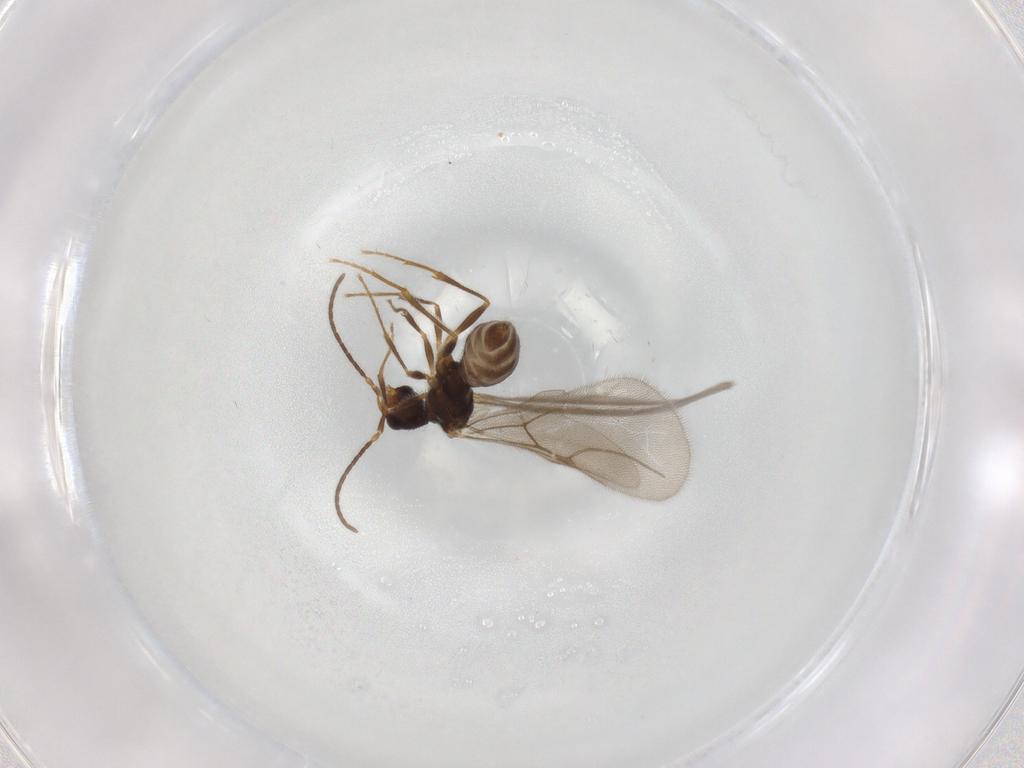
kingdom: Animalia
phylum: Arthropoda
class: Insecta
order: Hymenoptera
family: Bethylidae
